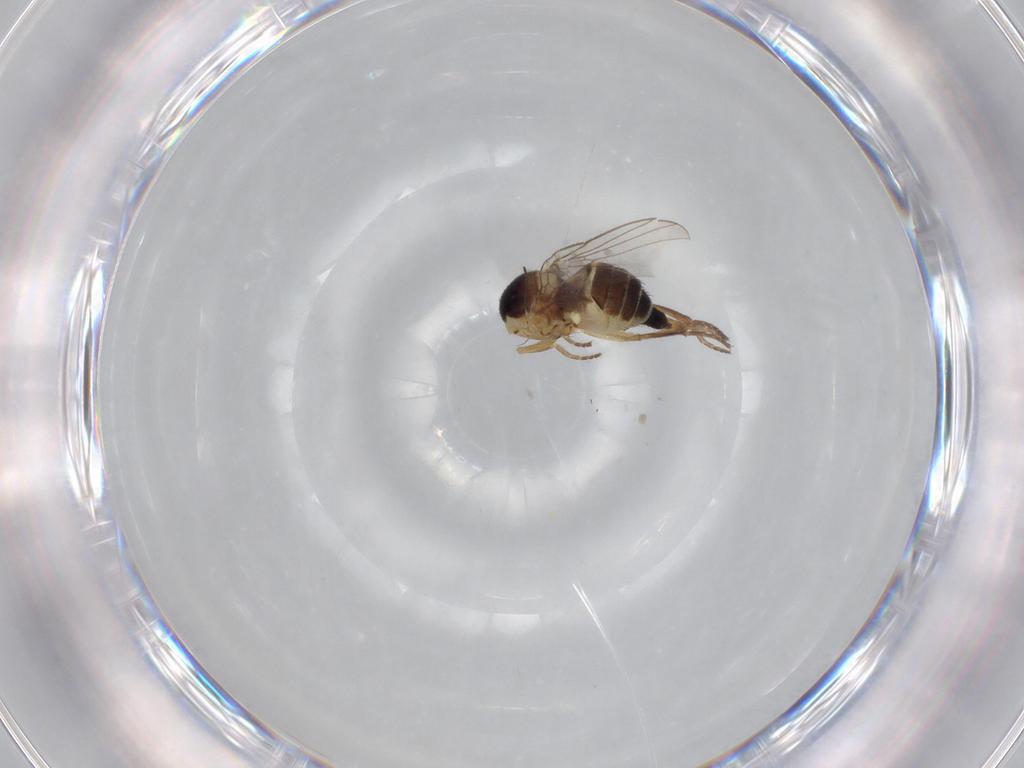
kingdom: Animalia
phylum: Arthropoda
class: Insecta
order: Diptera
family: Agromyzidae
